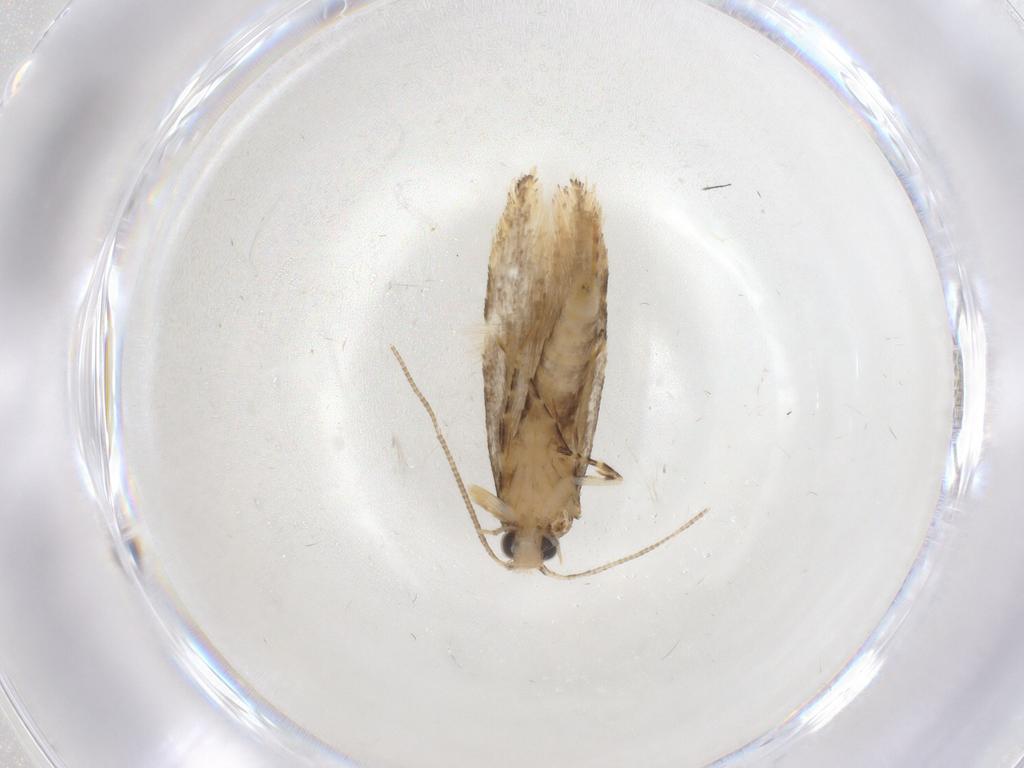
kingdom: Animalia
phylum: Arthropoda
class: Insecta
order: Lepidoptera
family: Tineidae
